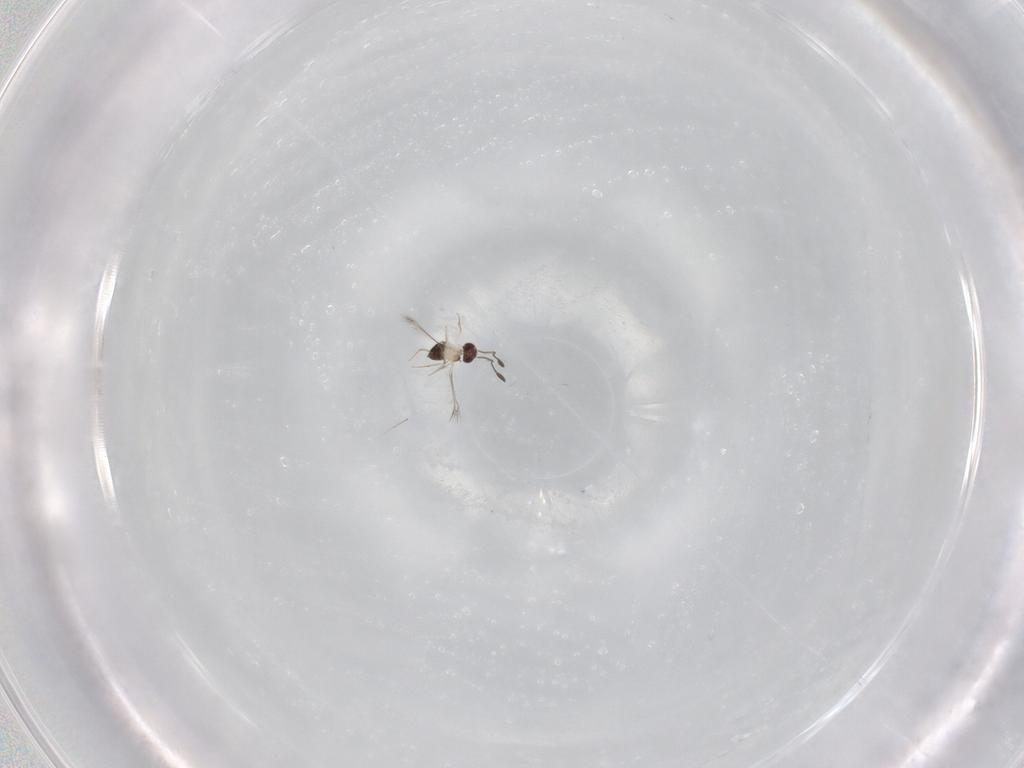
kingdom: Animalia
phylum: Arthropoda
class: Insecta
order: Hymenoptera
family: Mymaridae
